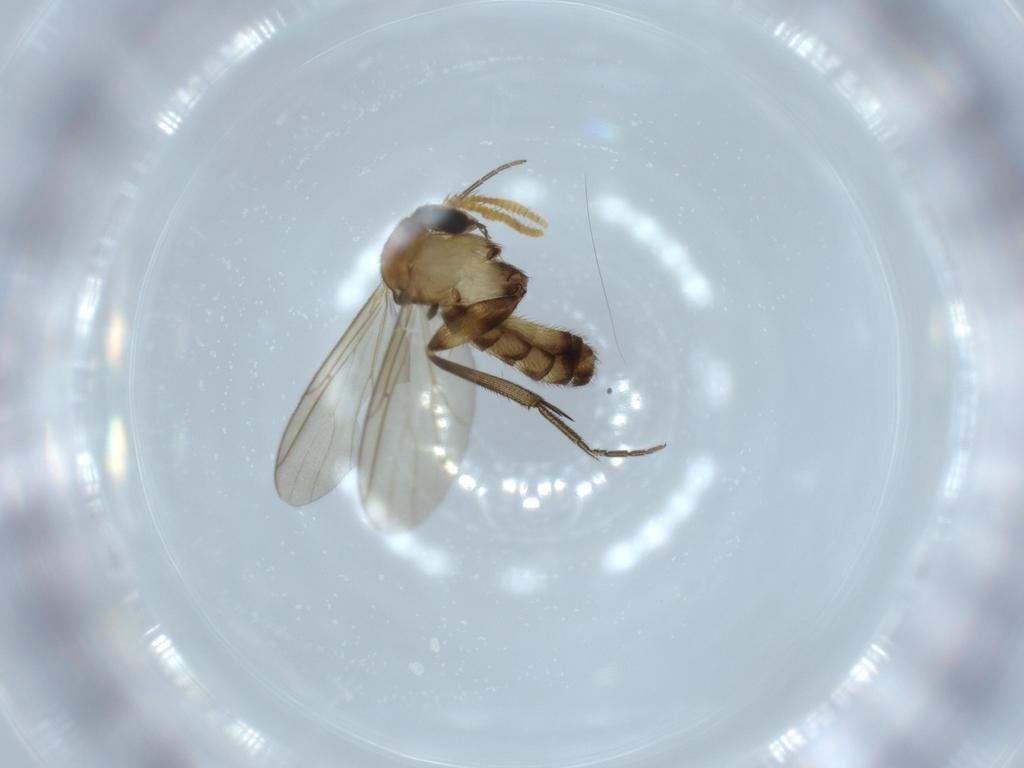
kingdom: Animalia
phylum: Arthropoda
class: Insecta
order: Diptera
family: Cecidomyiidae
